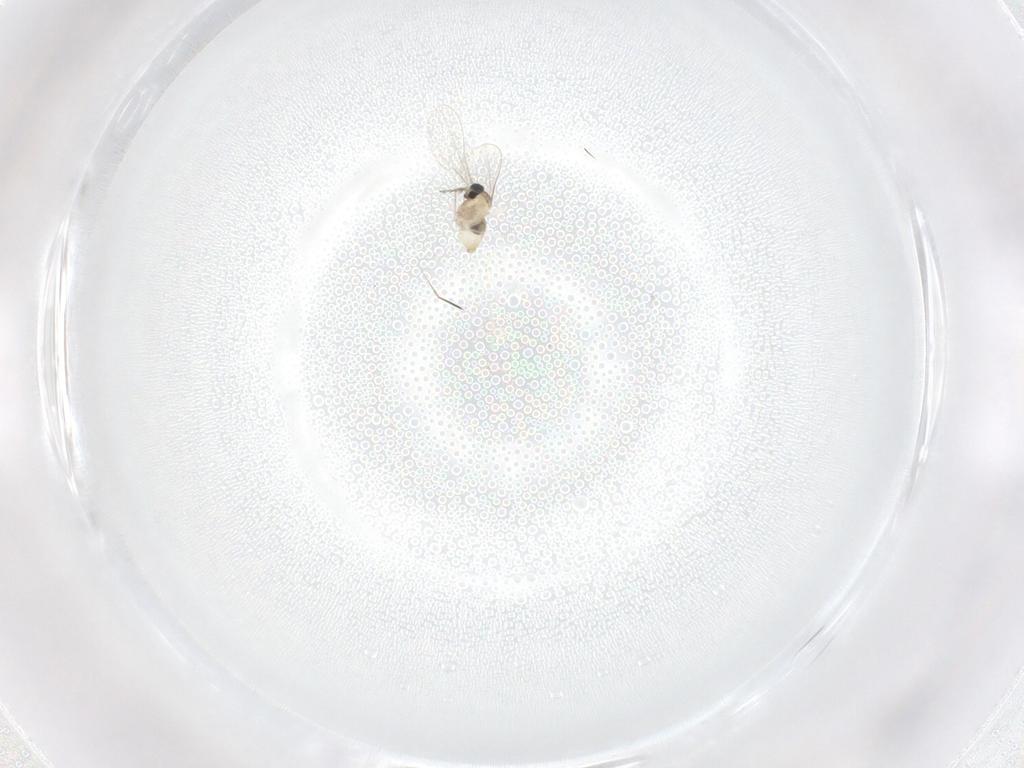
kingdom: Animalia
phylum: Arthropoda
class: Insecta
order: Diptera
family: Cecidomyiidae
